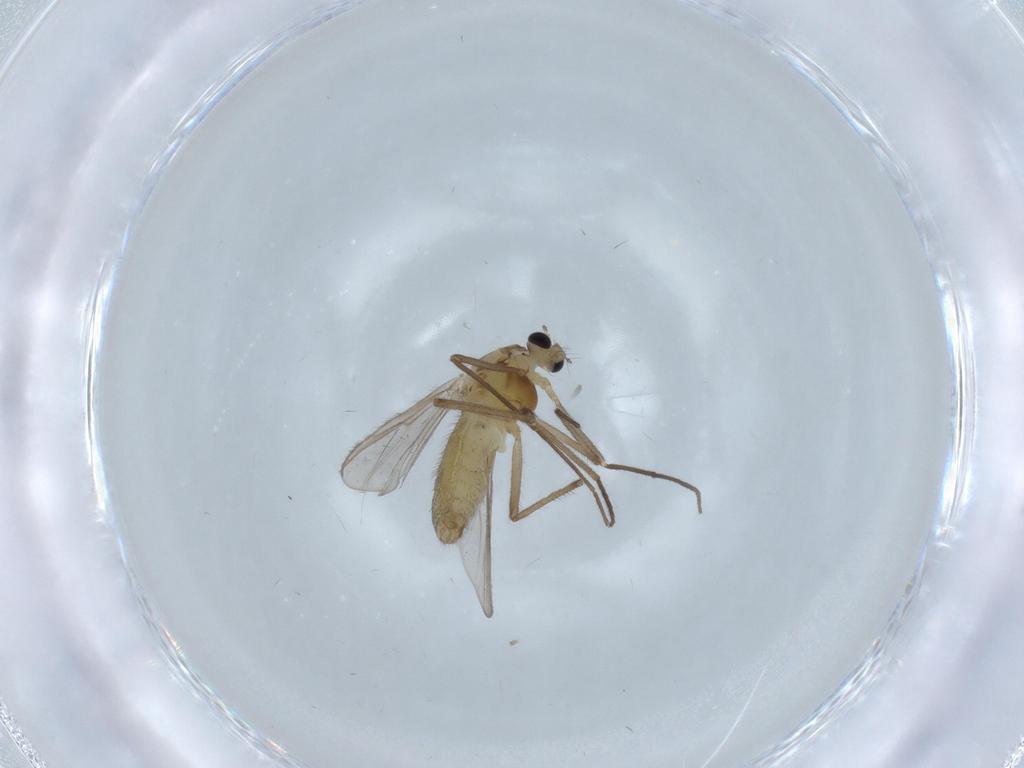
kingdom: Animalia
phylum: Arthropoda
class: Insecta
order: Diptera
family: Chironomidae
